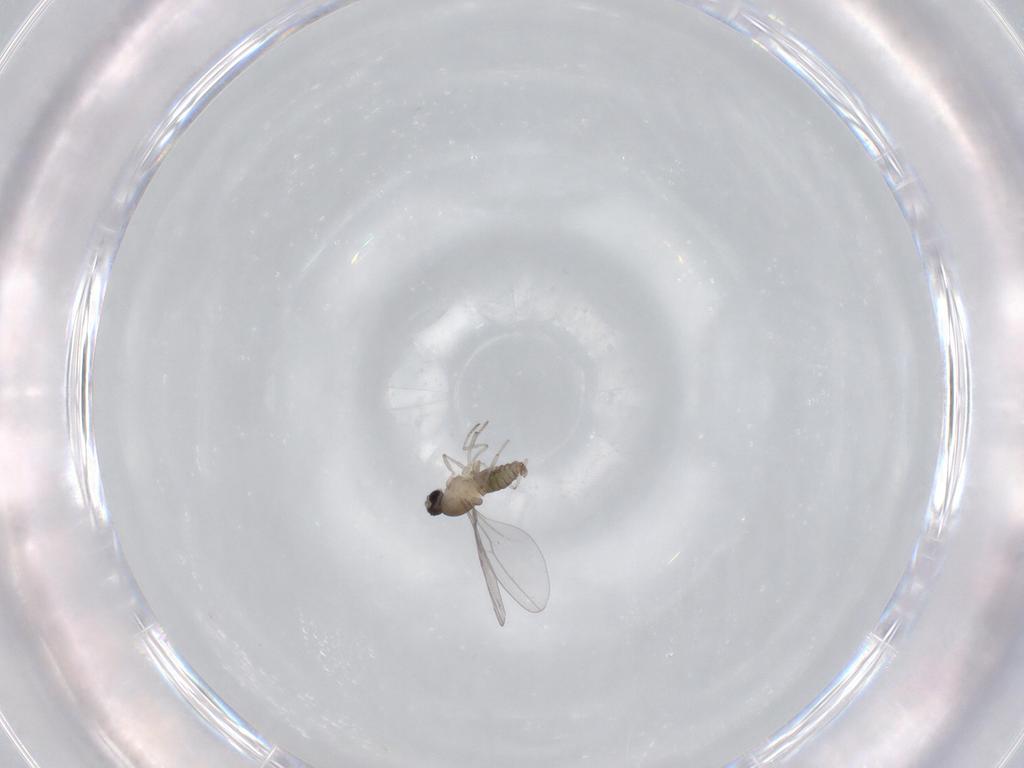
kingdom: Animalia
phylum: Arthropoda
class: Insecta
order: Diptera
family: Cecidomyiidae
